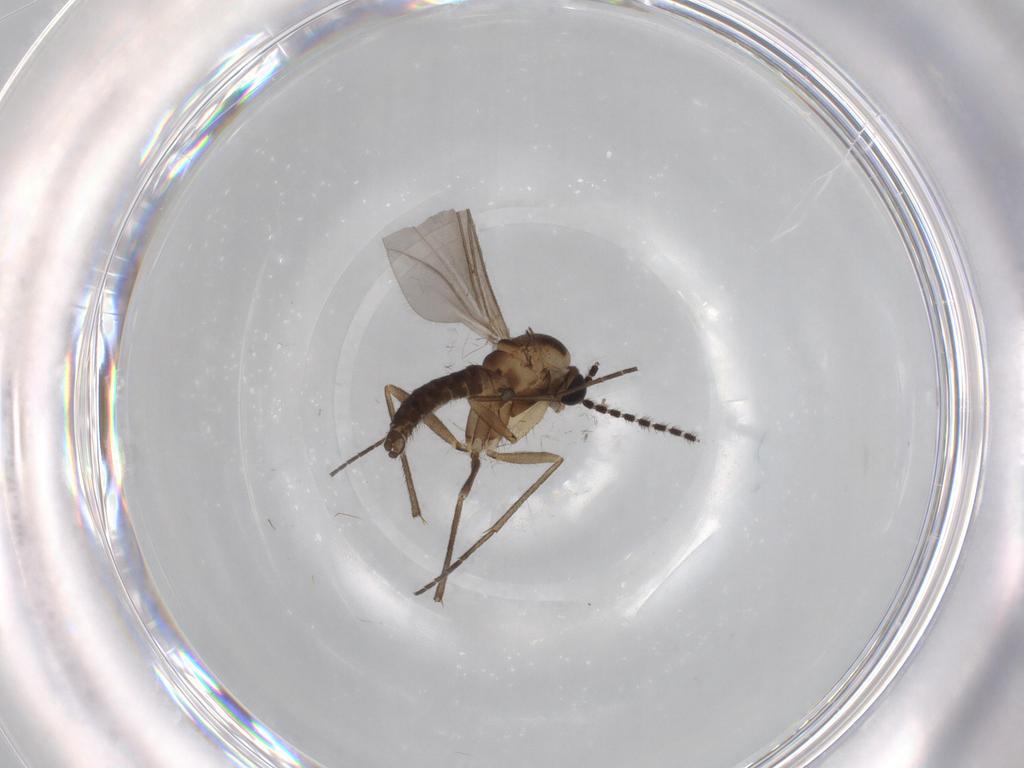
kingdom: Animalia
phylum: Arthropoda
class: Insecta
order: Diptera
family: Sciaridae
